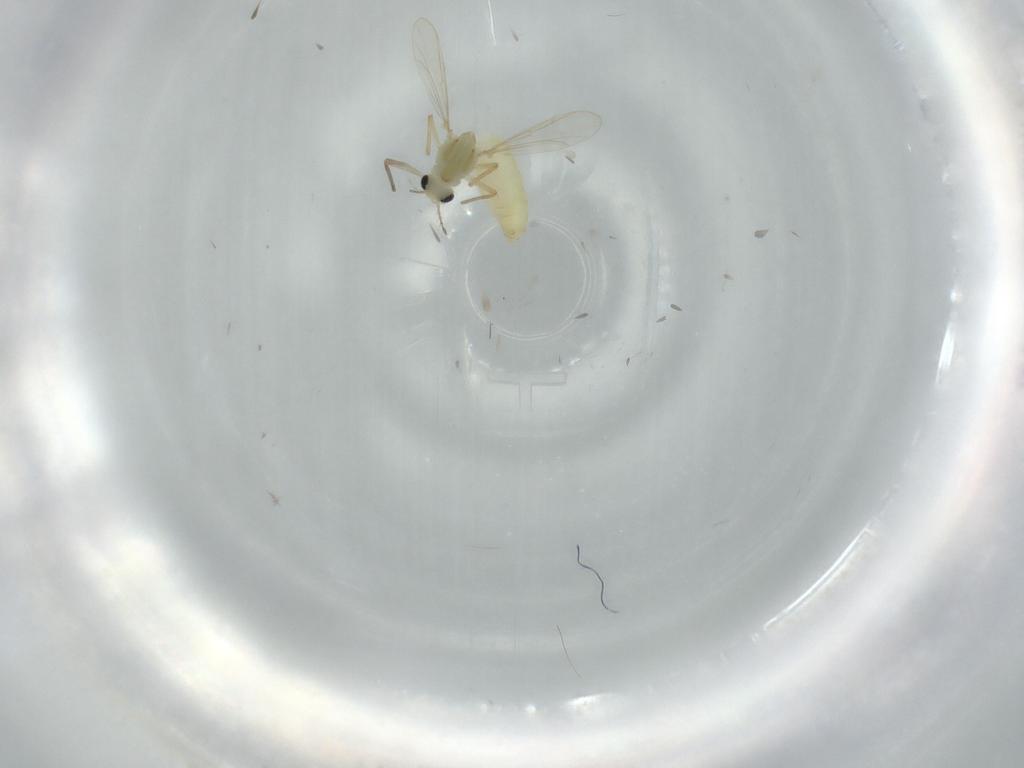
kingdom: Animalia
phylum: Arthropoda
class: Insecta
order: Diptera
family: Chironomidae
